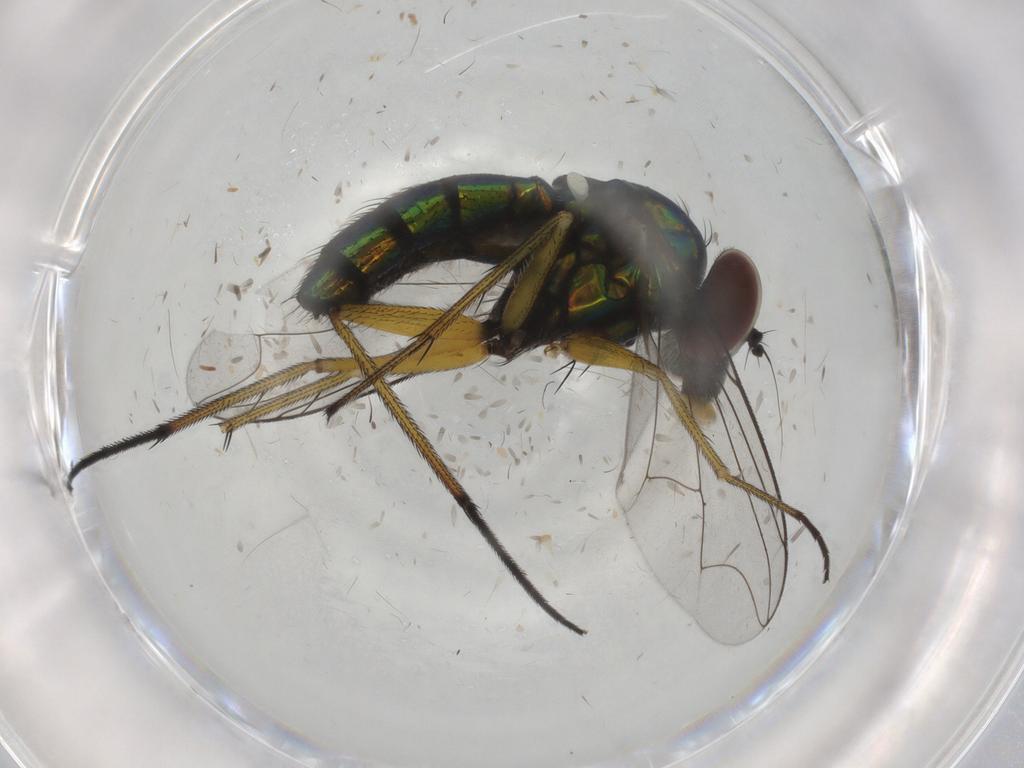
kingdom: Animalia
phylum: Arthropoda
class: Insecta
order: Diptera
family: Dolichopodidae
